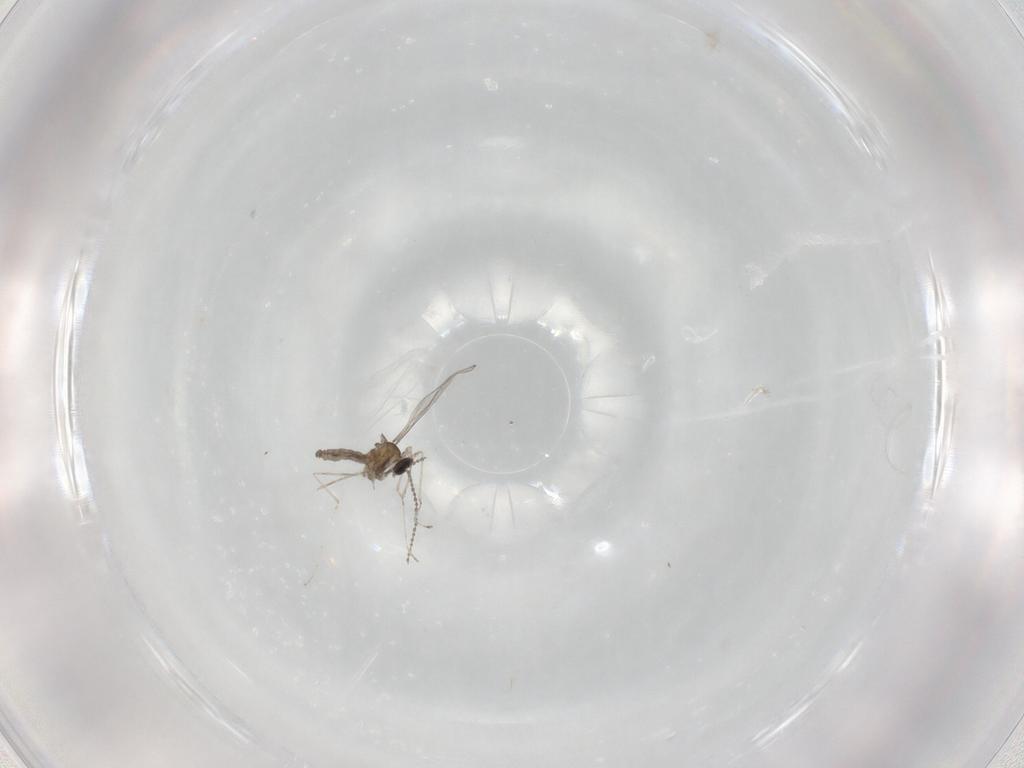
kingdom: Animalia
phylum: Arthropoda
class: Insecta
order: Diptera
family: Cecidomyiidae
